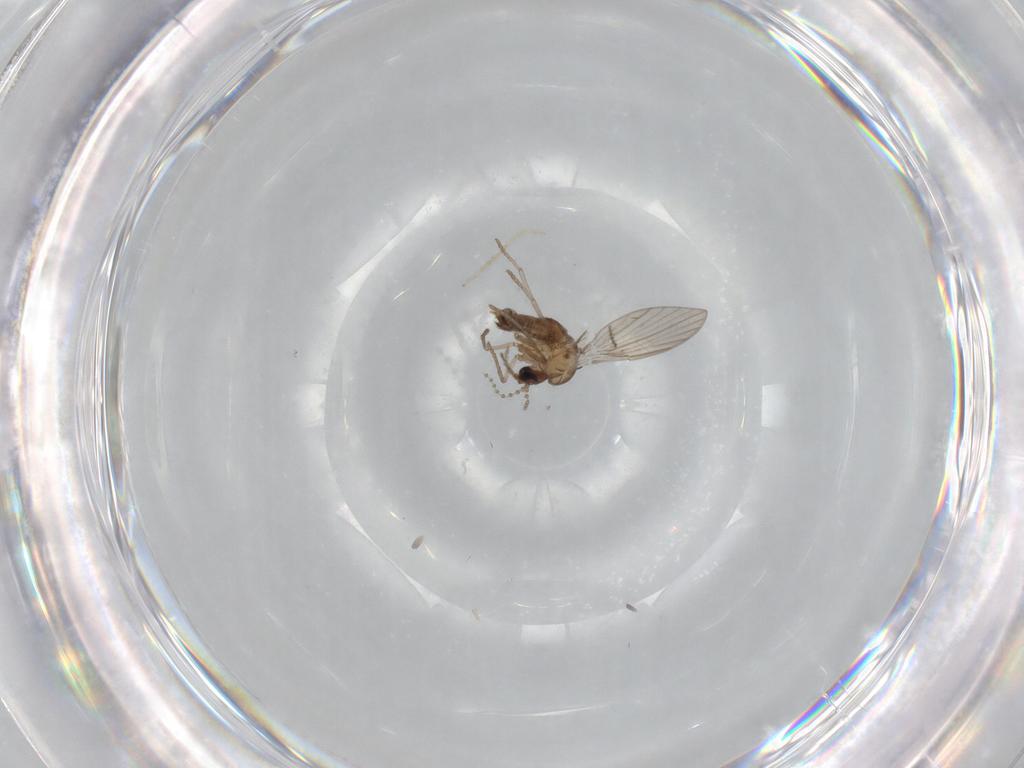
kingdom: Animalia
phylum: Arthropoda
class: Insecta
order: Diptera
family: Psychodidae
